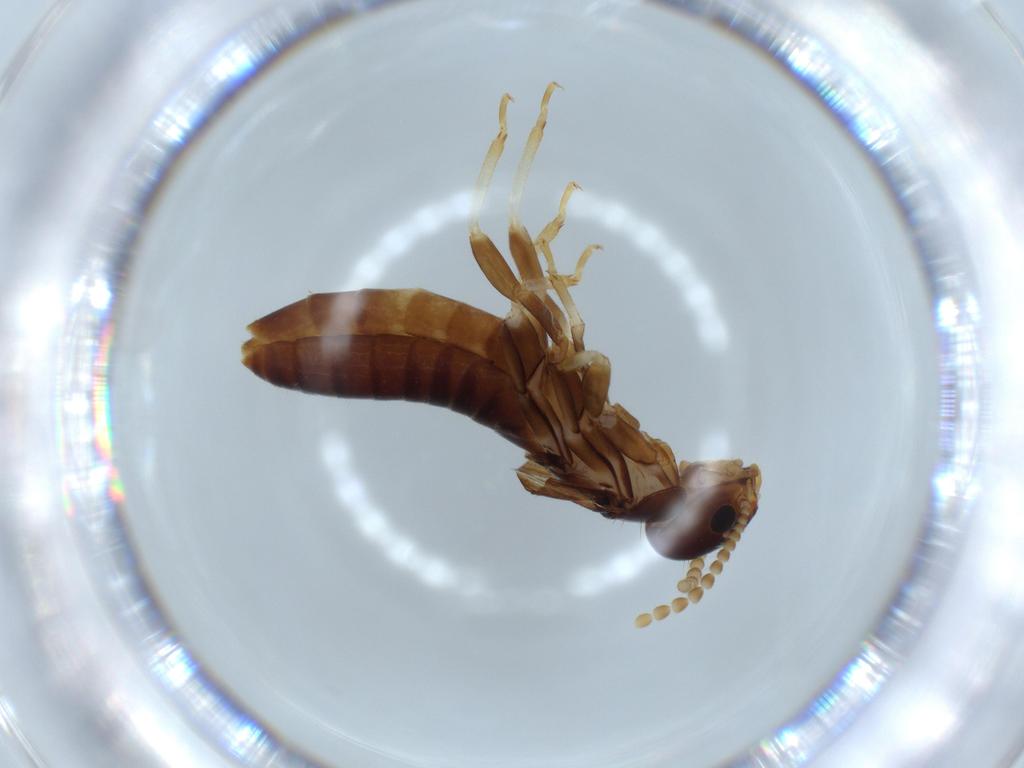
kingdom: Animalia
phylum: Arthropoda
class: Insecta
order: Blattodea
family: Kalotermitidae
